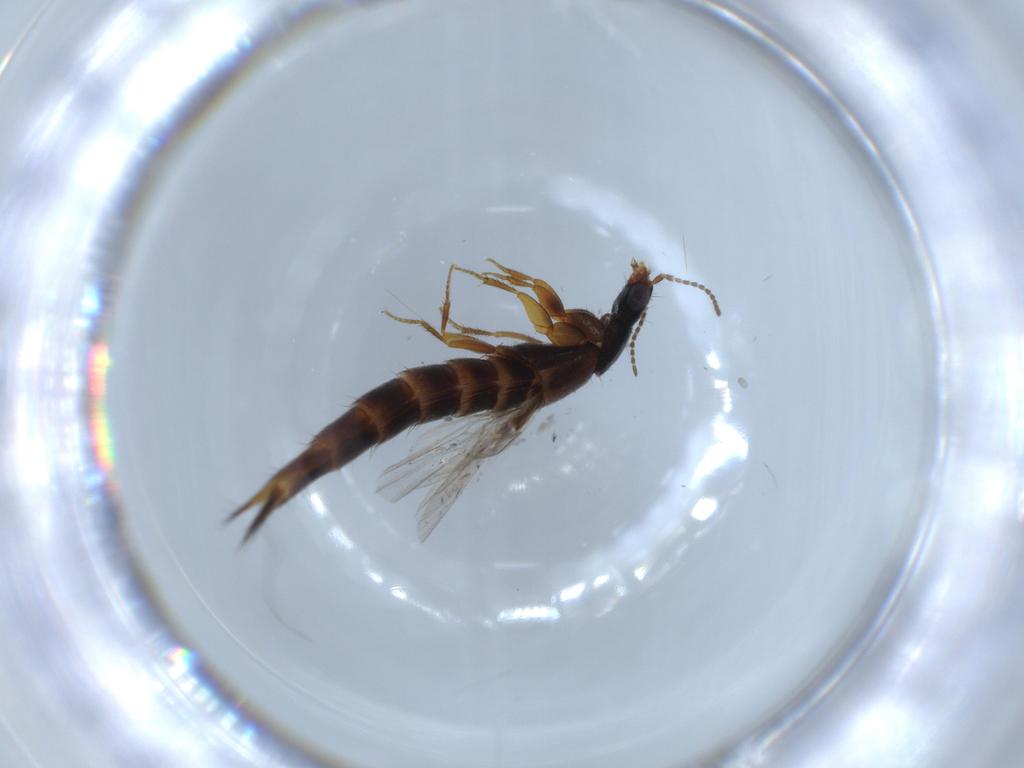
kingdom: Animalia
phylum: Arthropoda
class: Insecta
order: Coleoptera
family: Staphylinidae
